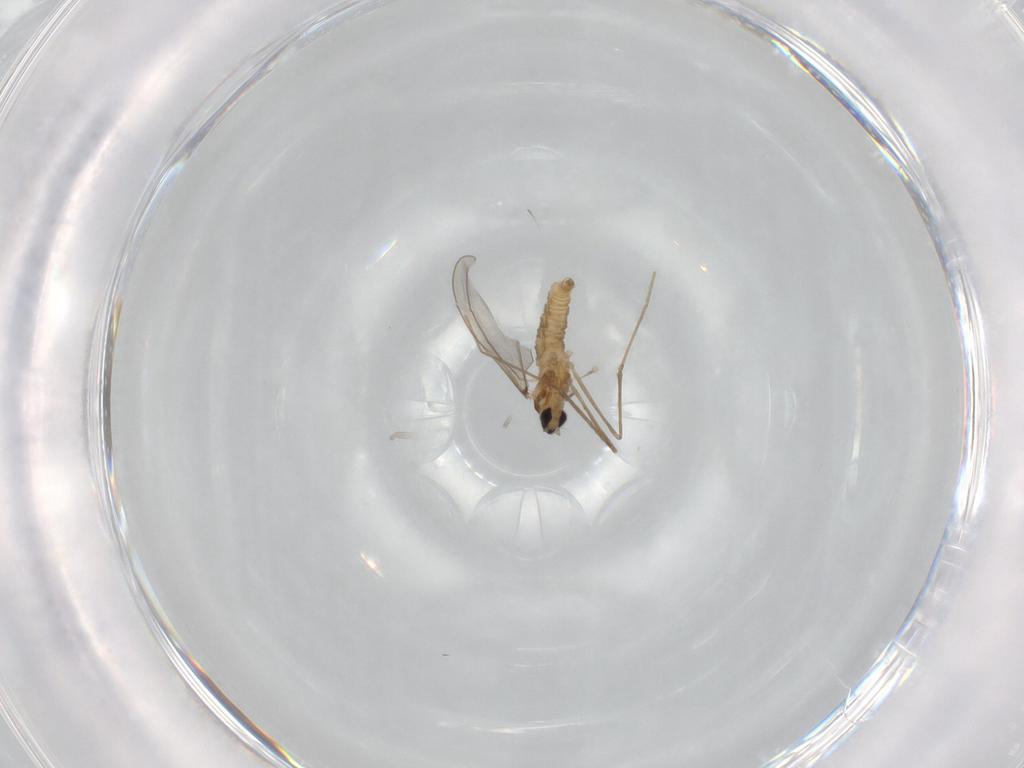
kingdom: Animalia
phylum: Arthropoda
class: Insecta
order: Diptera
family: Cecidomyiidae
